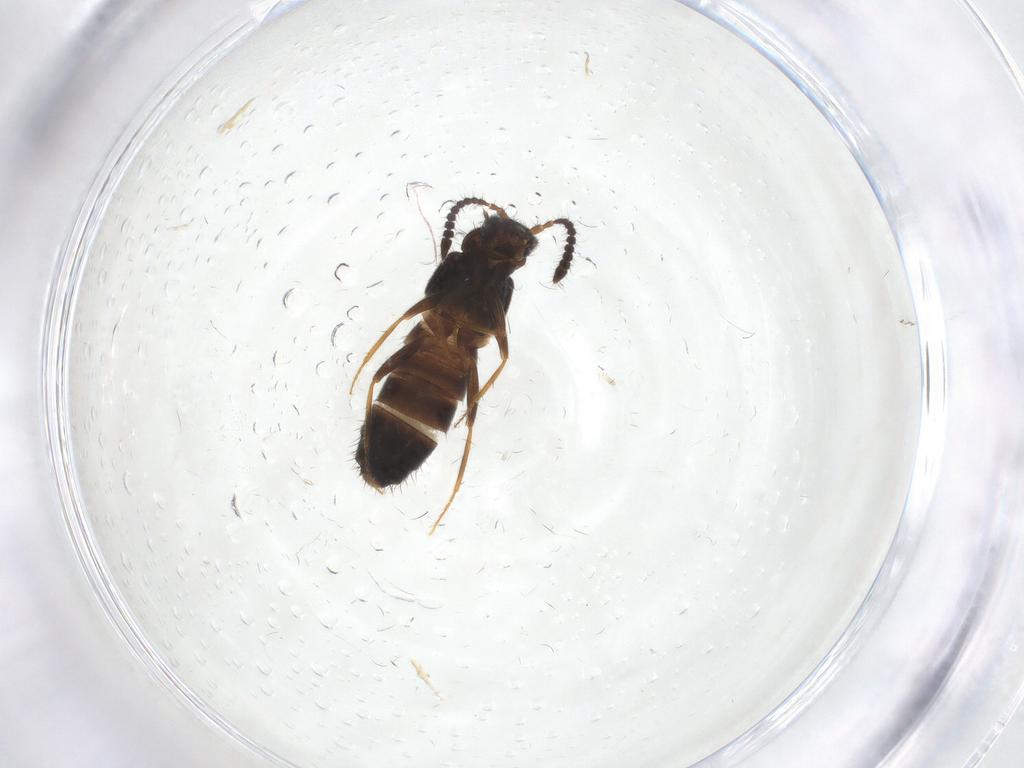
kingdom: Animalia
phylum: Arthropoda
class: Insecta
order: Coleoptera
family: Staphylinidae
